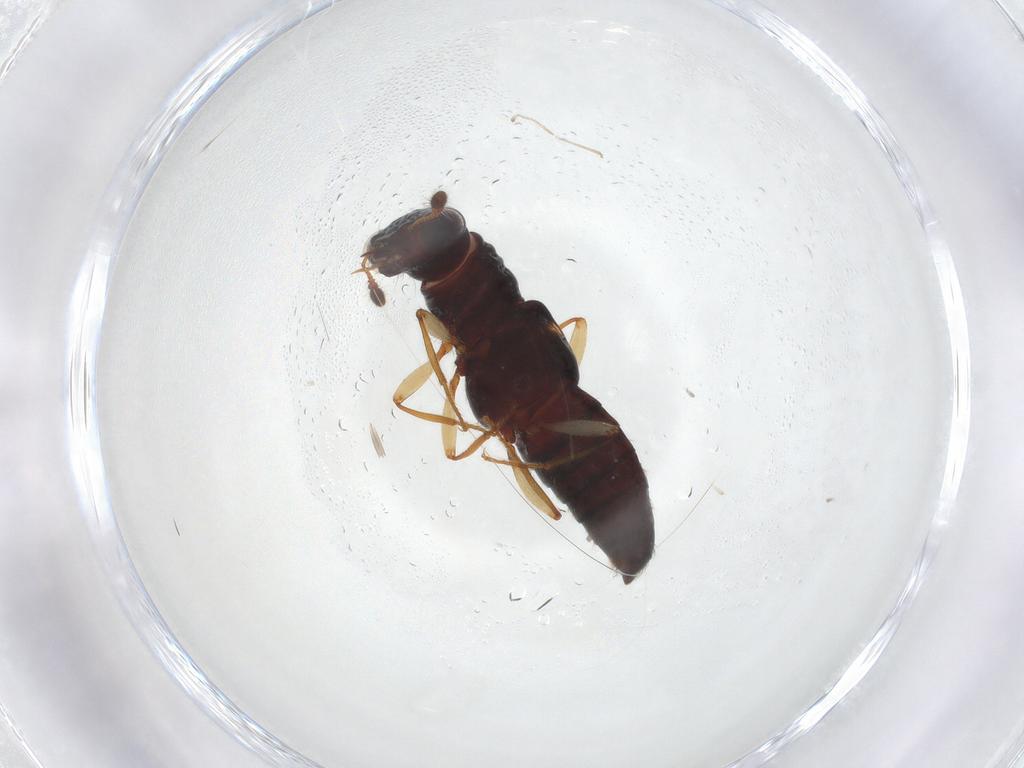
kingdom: Animalia
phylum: Arthropoda
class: Insecta
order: Coleoptera
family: Staphylinidae
